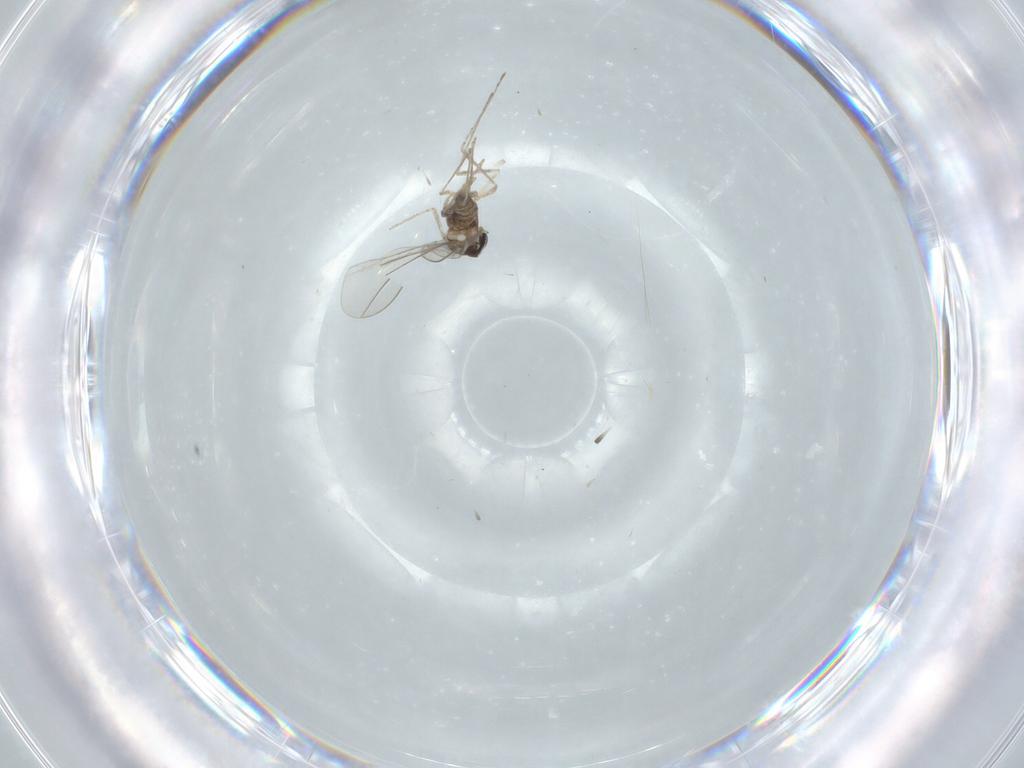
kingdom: Animalia
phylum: Arthropoda
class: Insecta
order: Diptera
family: Cecidomyiidae
